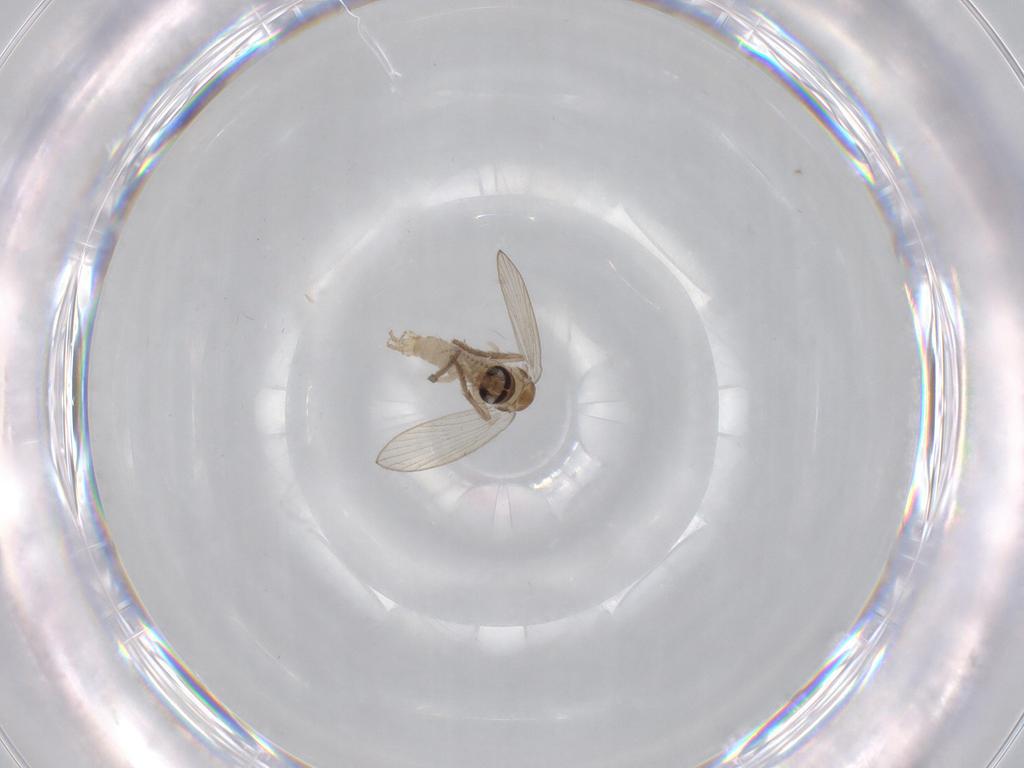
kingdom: Animalia
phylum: Arthropoda
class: Insecta
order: Diptera
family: Psychodidae
